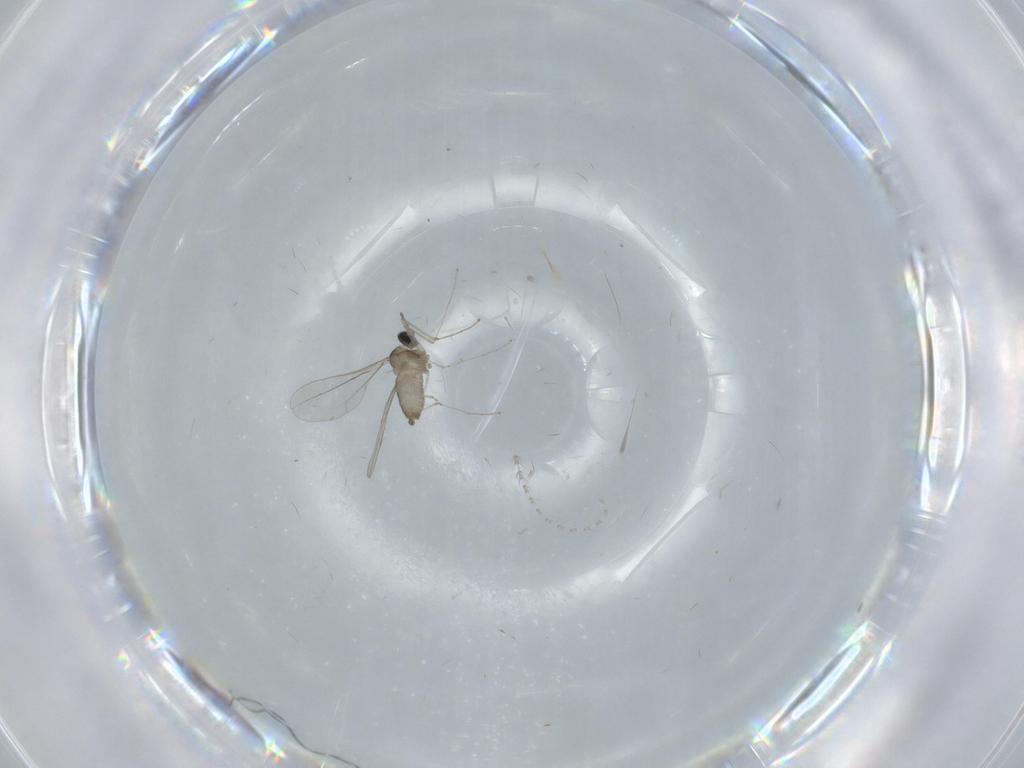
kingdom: Animalia
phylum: Arthropoda
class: Insecta
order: Diptera
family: Cecidomyiidae
